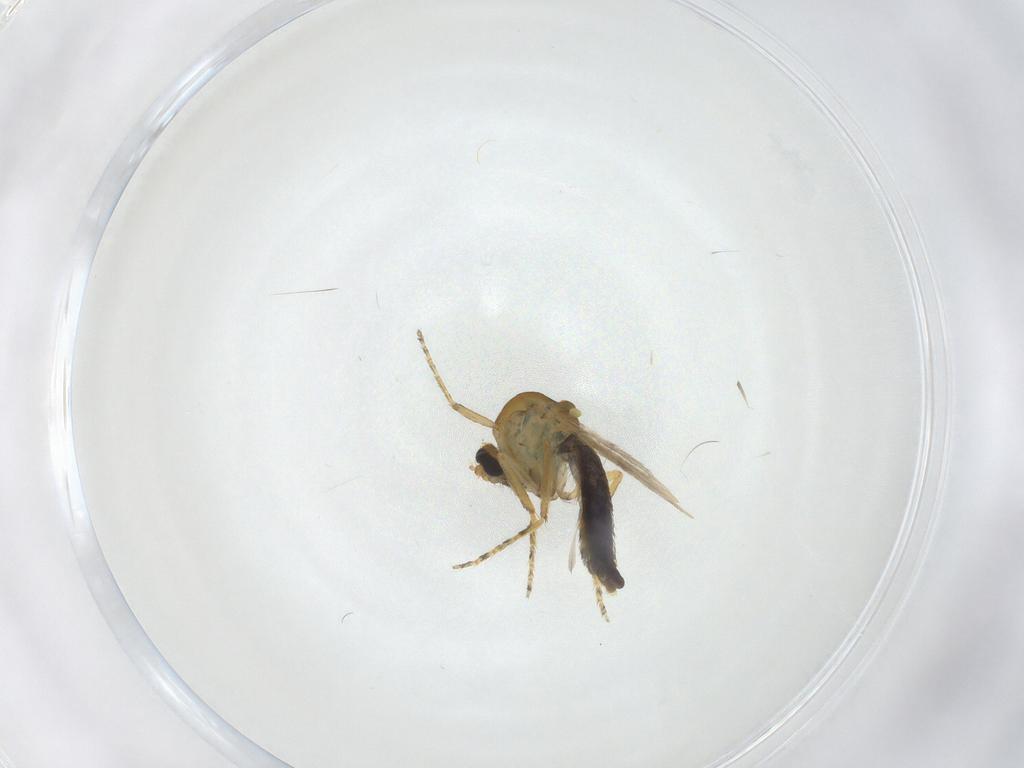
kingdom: Animalia
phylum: Arthropoda
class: Insecta
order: Diptera
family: Ceratopogonidae
